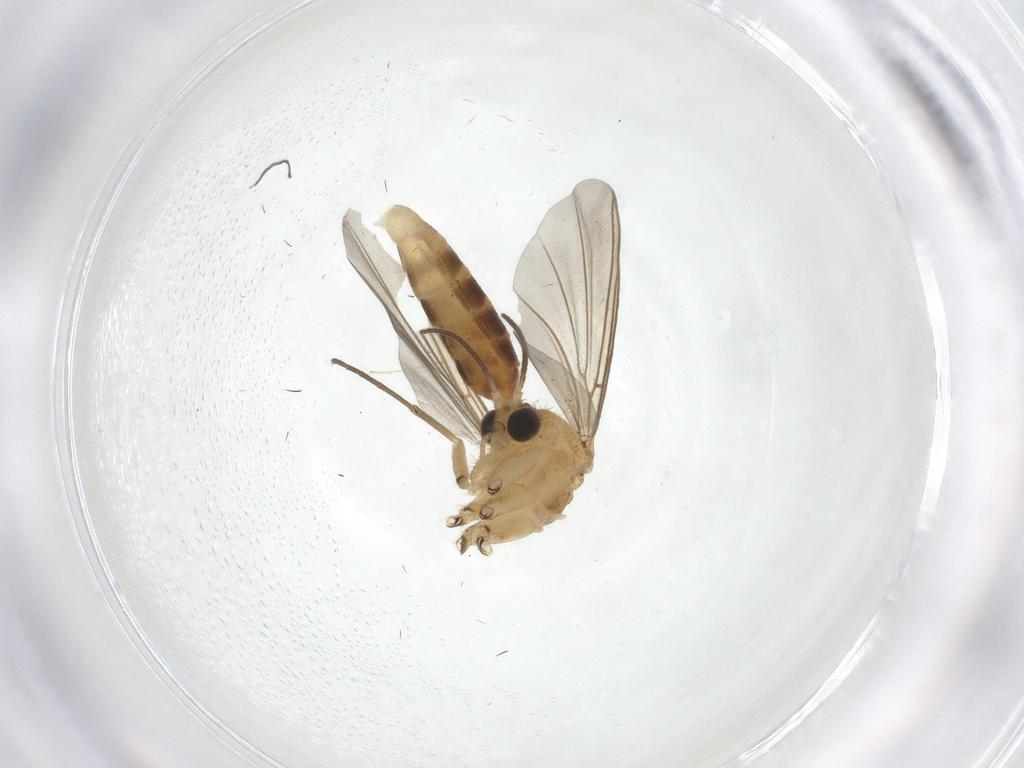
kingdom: Animalia
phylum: Arthropoda
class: Insecta
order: Diptera
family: Mycetophilidae
